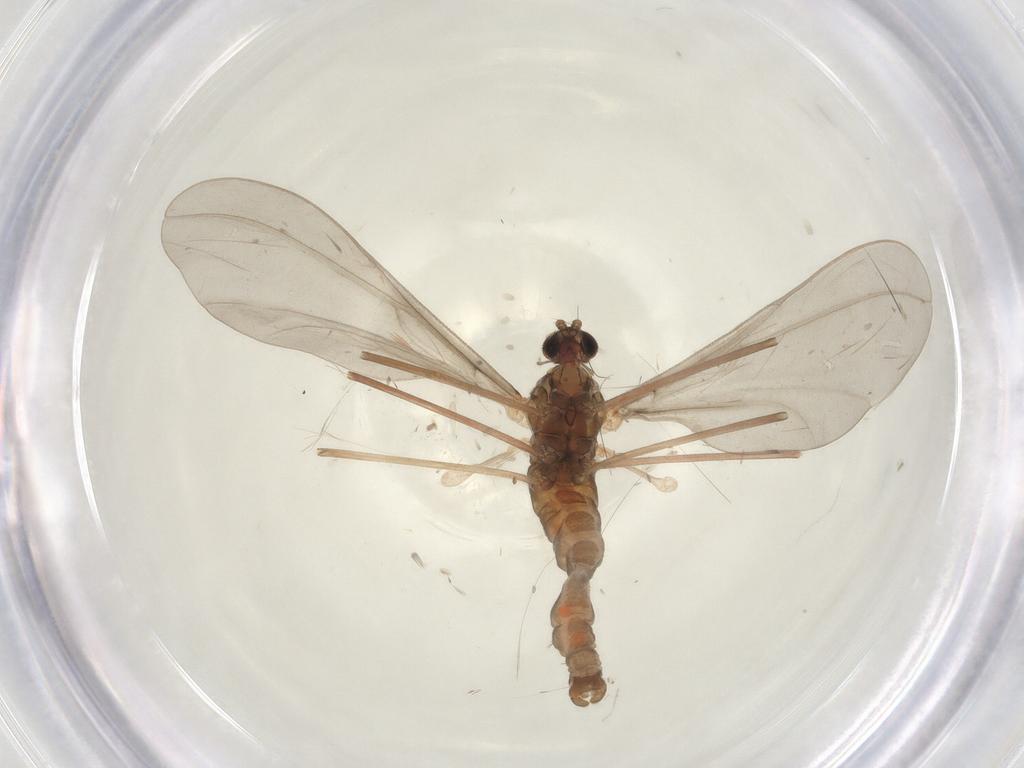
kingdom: Animalia
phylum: Arthropoda
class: Insecta
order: Diptera
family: Cecidomyiidae
